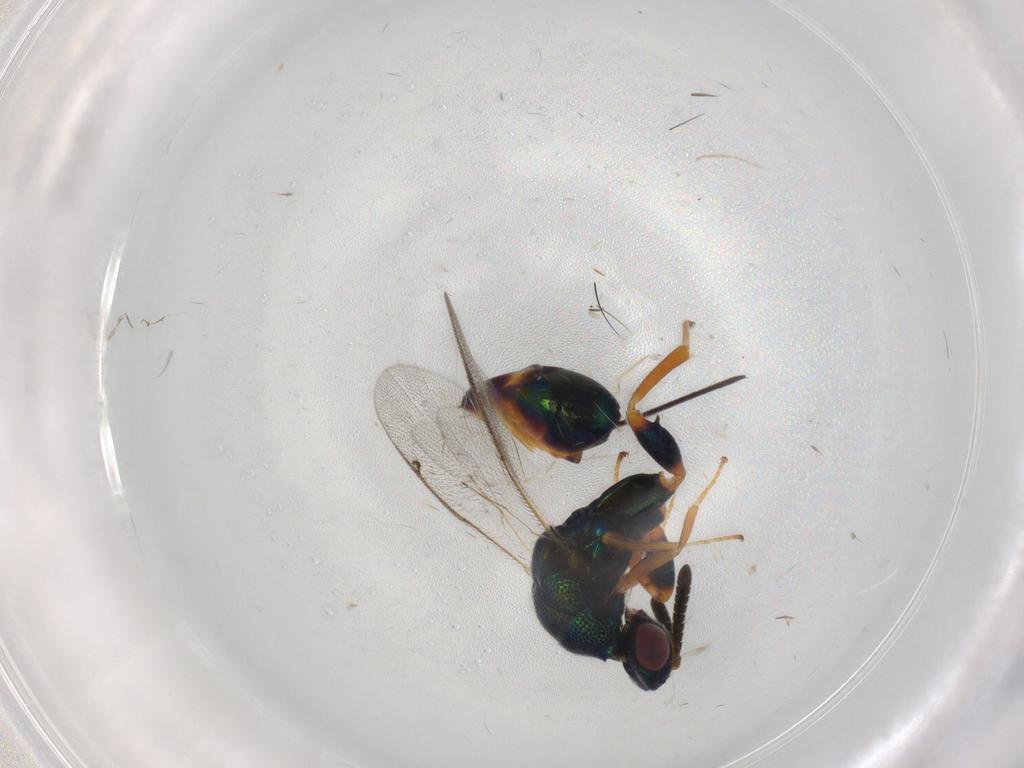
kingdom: Animalia
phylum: Arthropoda
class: Insecta
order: Hymenoptera
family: Torymidae
